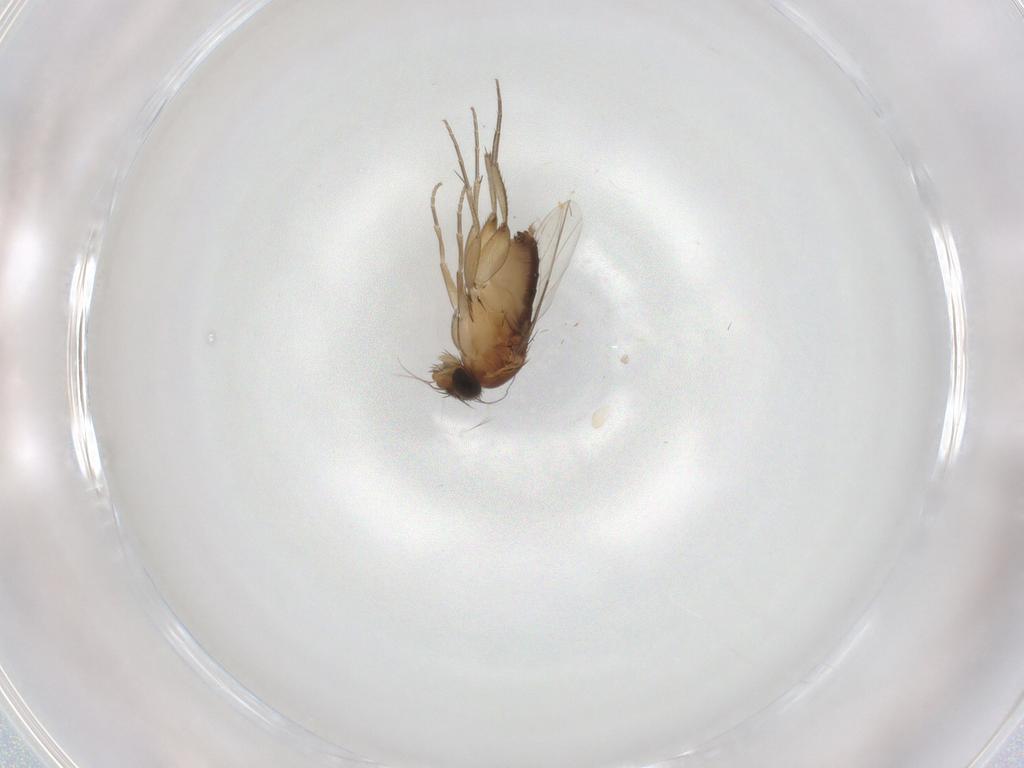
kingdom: Animalia
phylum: Arthropoda
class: Insecta
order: Diptera
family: Phoridae
